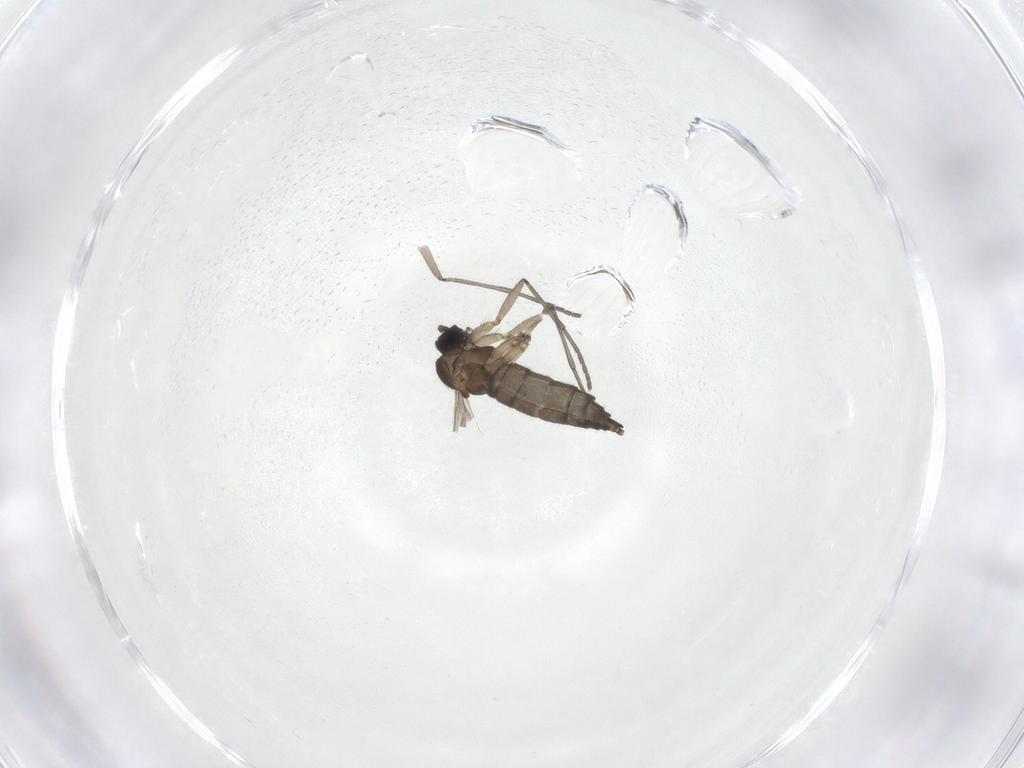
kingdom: Animalia
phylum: Arthropoda
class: Insecta
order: Diptera
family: Sciaridae
